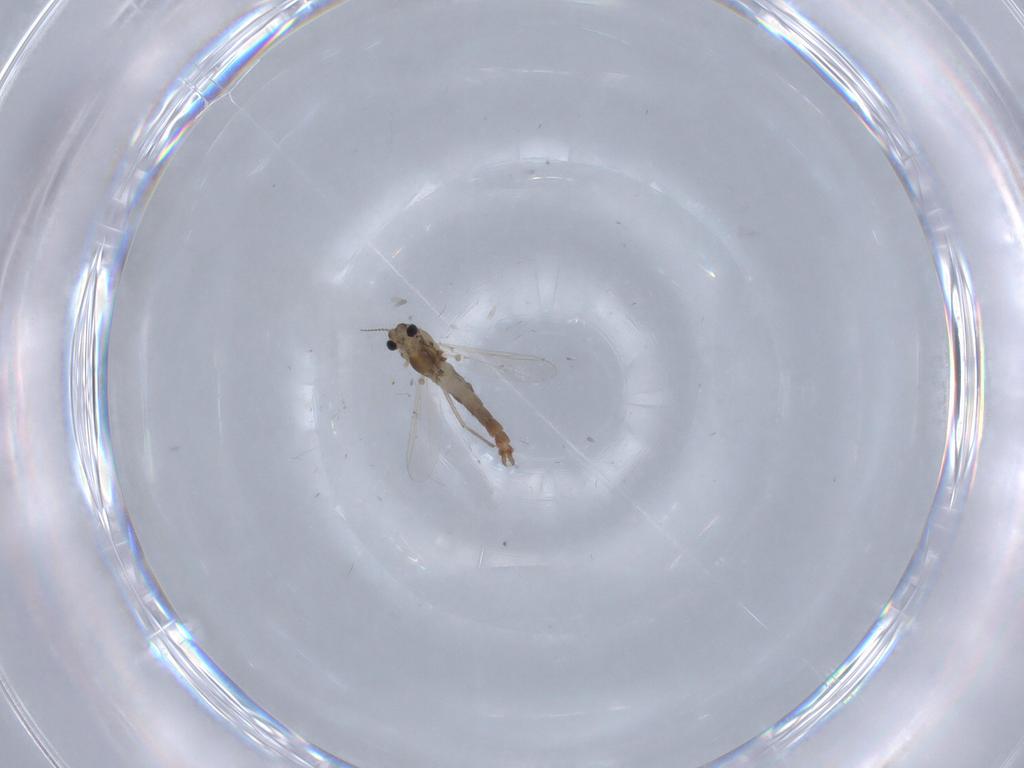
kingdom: Animalia
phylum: Arthropoda
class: Insecta
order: Diptera
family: Chironomidae
